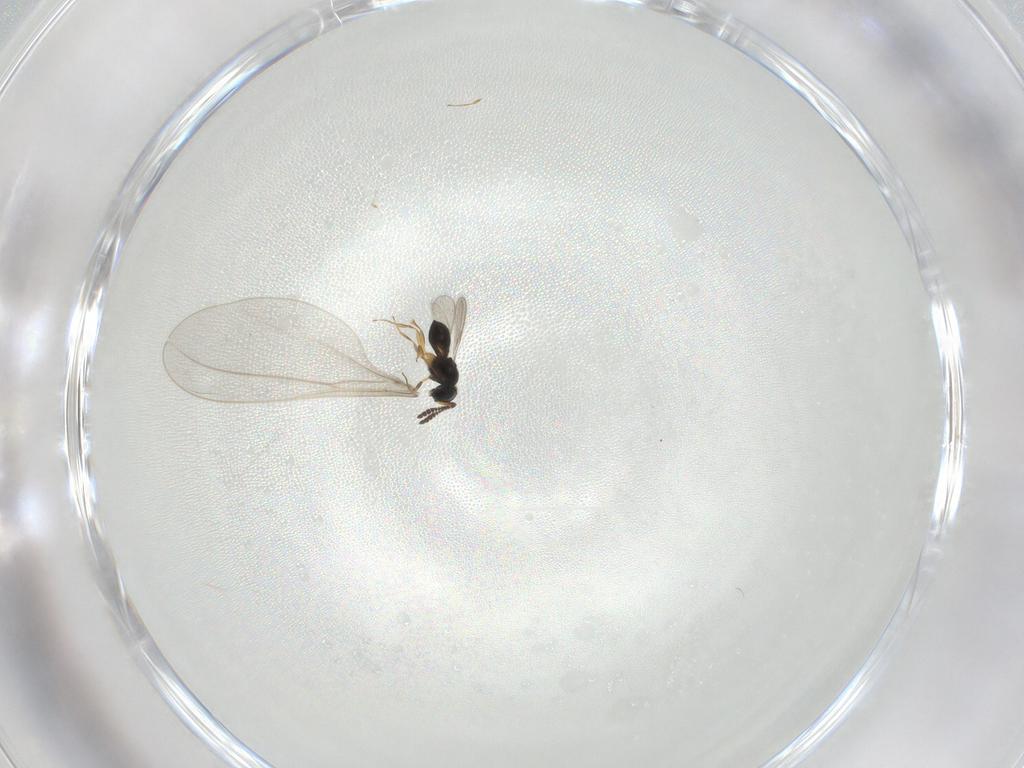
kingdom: Animalia
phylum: Arthropoda
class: Insecta
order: Hymenoptera
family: Scelionidae
